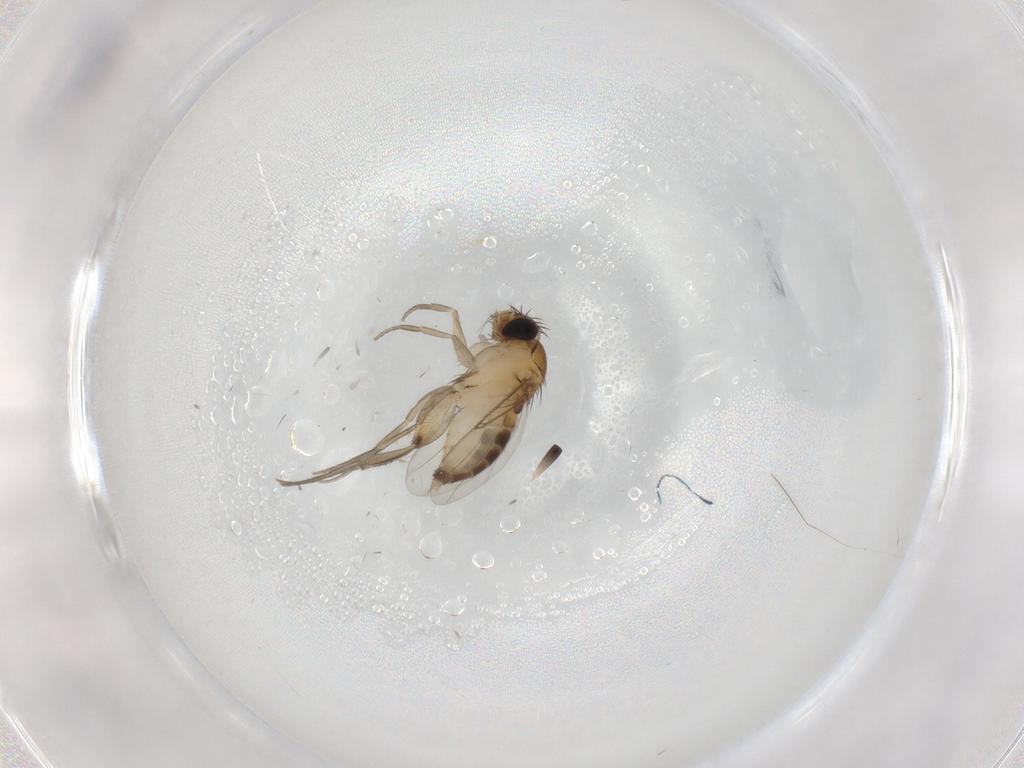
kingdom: Animalia
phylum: Arthropoda
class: Insecta
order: Diptera
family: Phoridae
